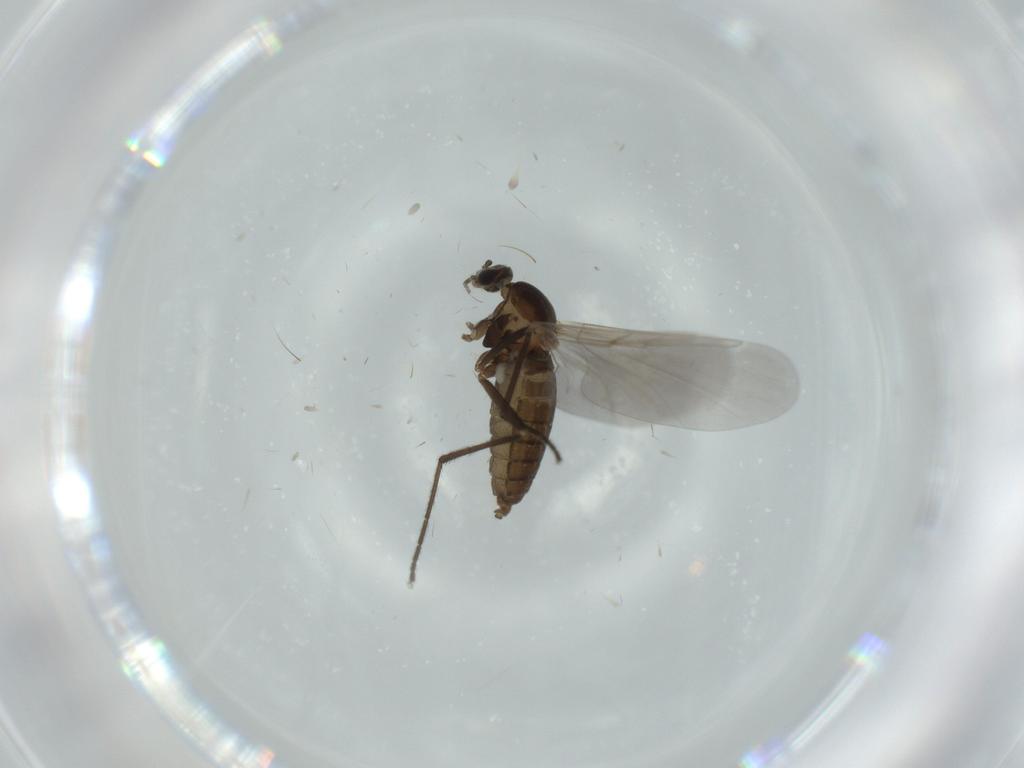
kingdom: Animalia
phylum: Arthropoda
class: Insecta
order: Diptera
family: Cecidomyiidae
